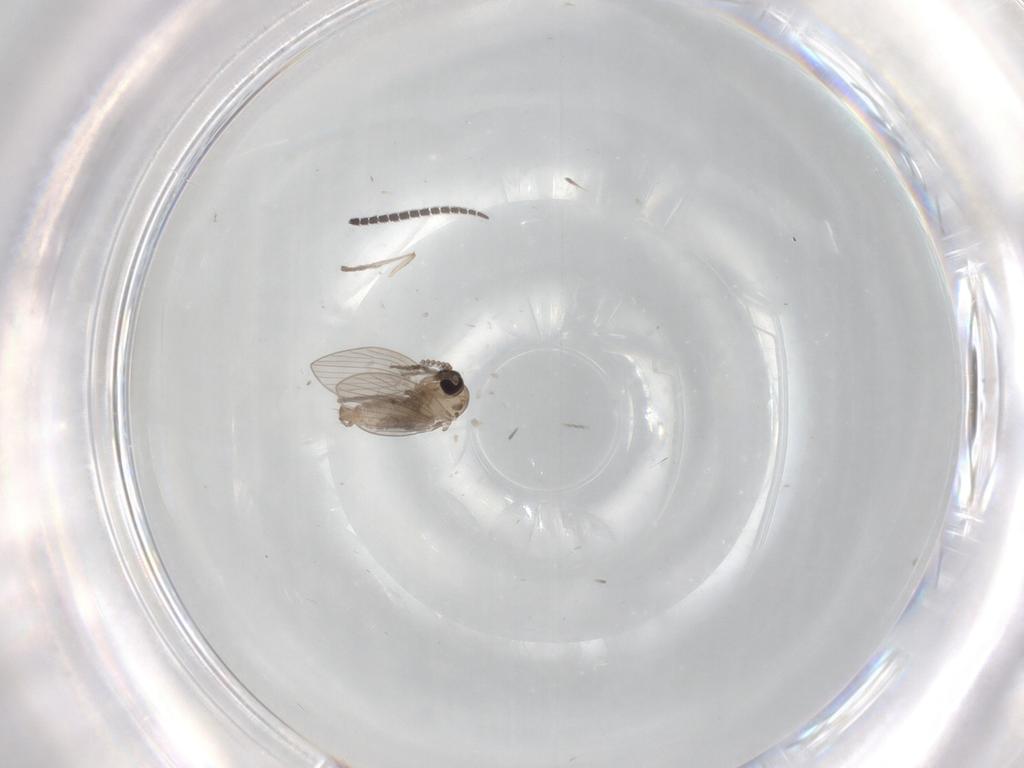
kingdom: Animalia
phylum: Arthropoda
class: Insecta
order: Diptera
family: Psychodidae
